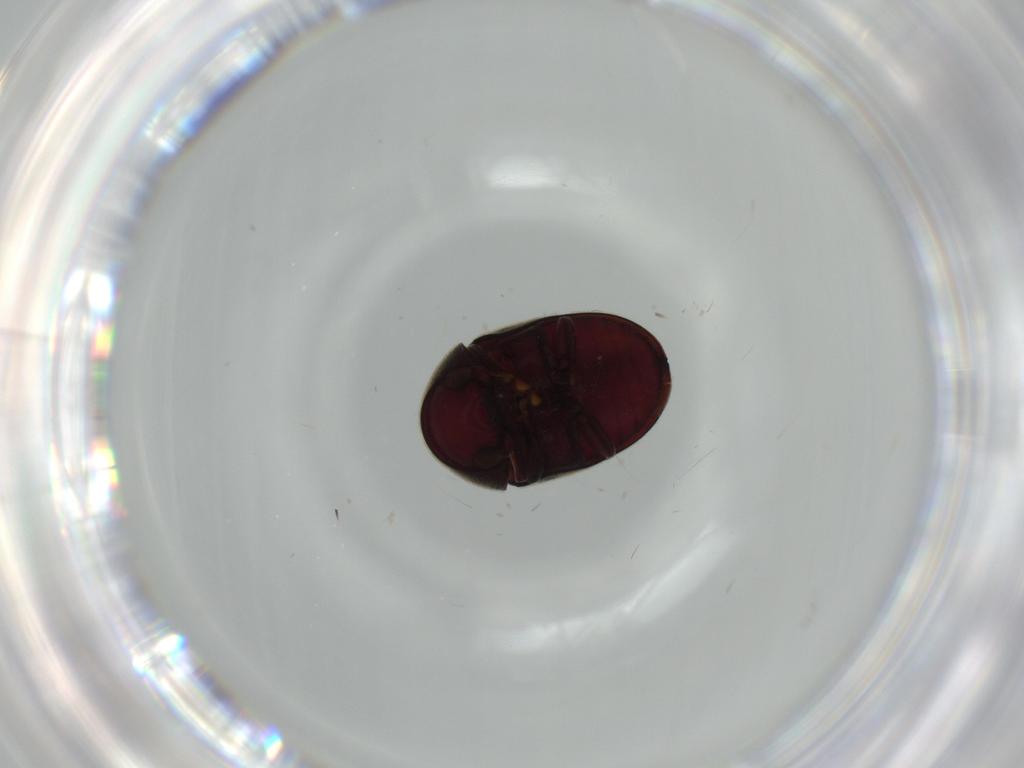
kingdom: Animalia
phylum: Arthropoda
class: Insecta
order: Coleoptera
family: Ptinidae
